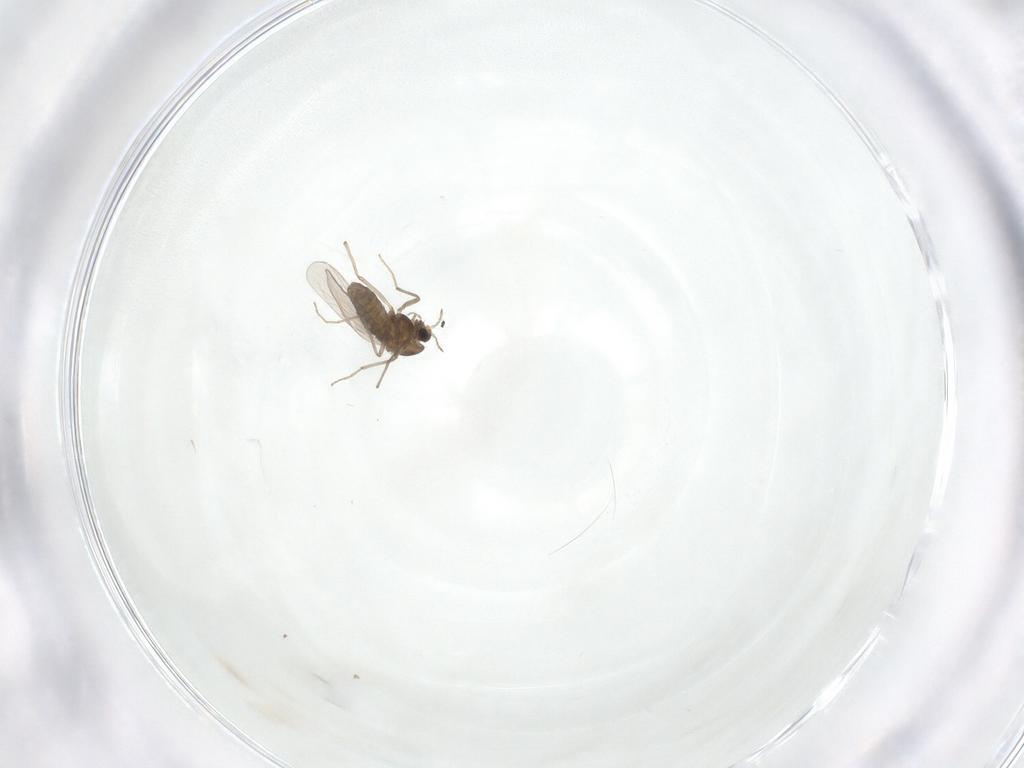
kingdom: Animalia
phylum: Arthropoda
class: Insecta
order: Diptera
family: Chironomidae
